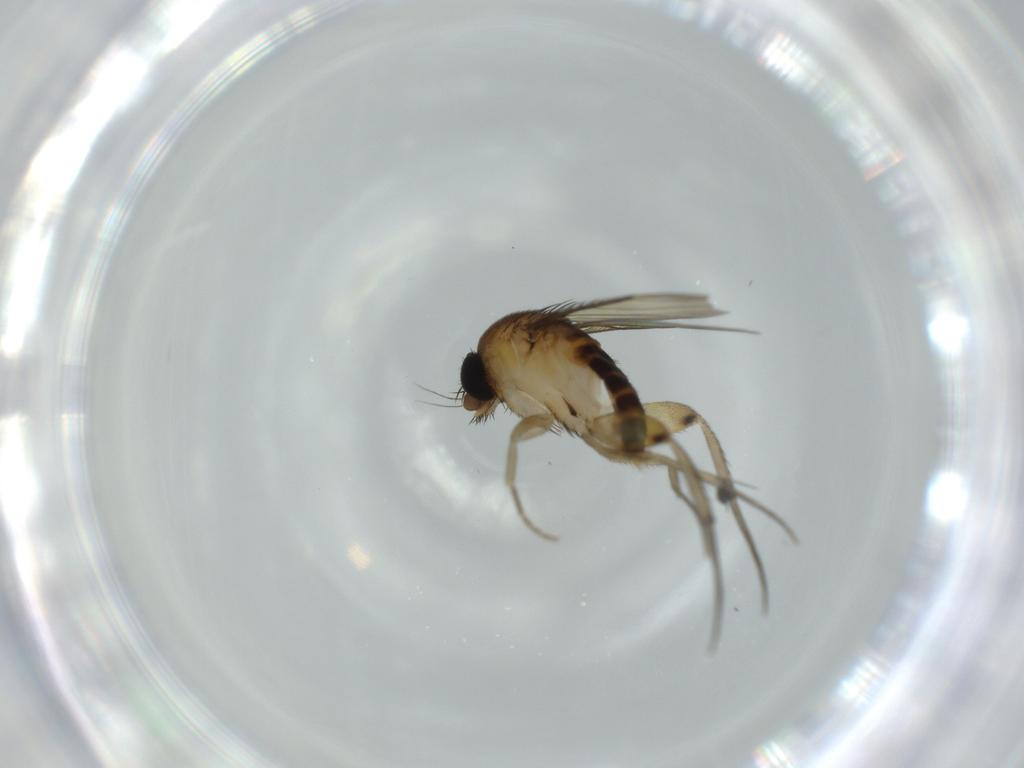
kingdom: Animalia
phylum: Arthropoda
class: Insecta
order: Diptera
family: Phoridae
